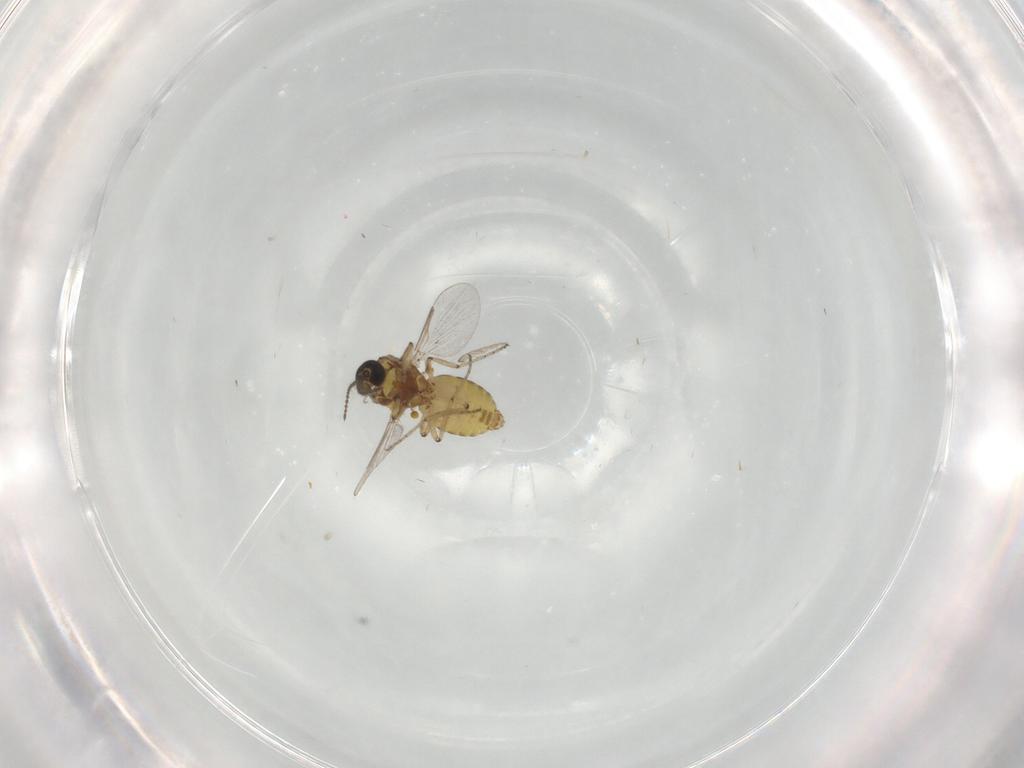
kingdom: Animalia
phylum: Arthropoda
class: Insecta
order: Diptera
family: Ceratopogonidae
